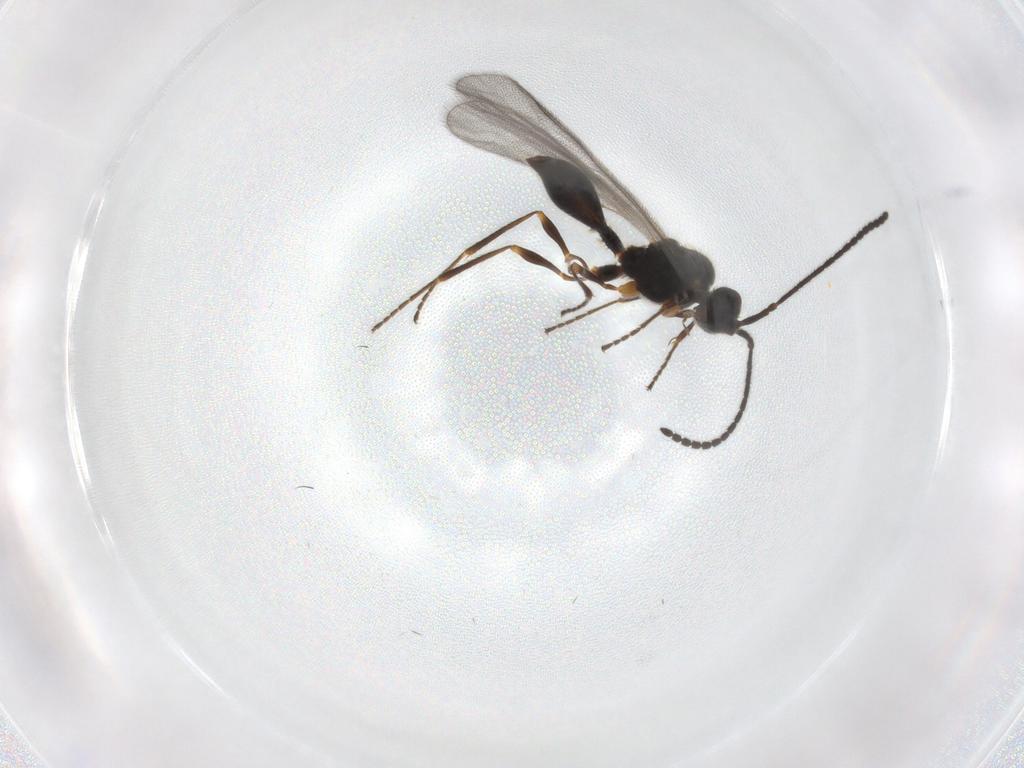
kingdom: Animalia
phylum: Arthropoda
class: Insecta
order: Hymenoptera
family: Diapriidae
